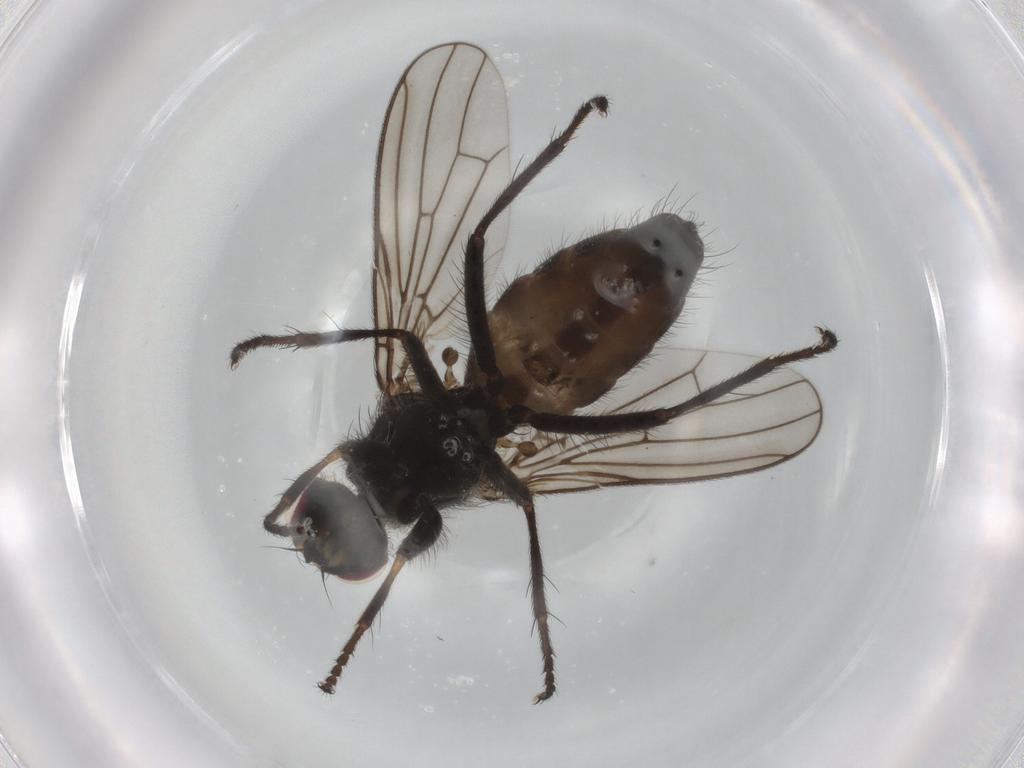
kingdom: Animalia
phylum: Arthropoda
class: Insecta
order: Diptera
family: Scathophagidae
